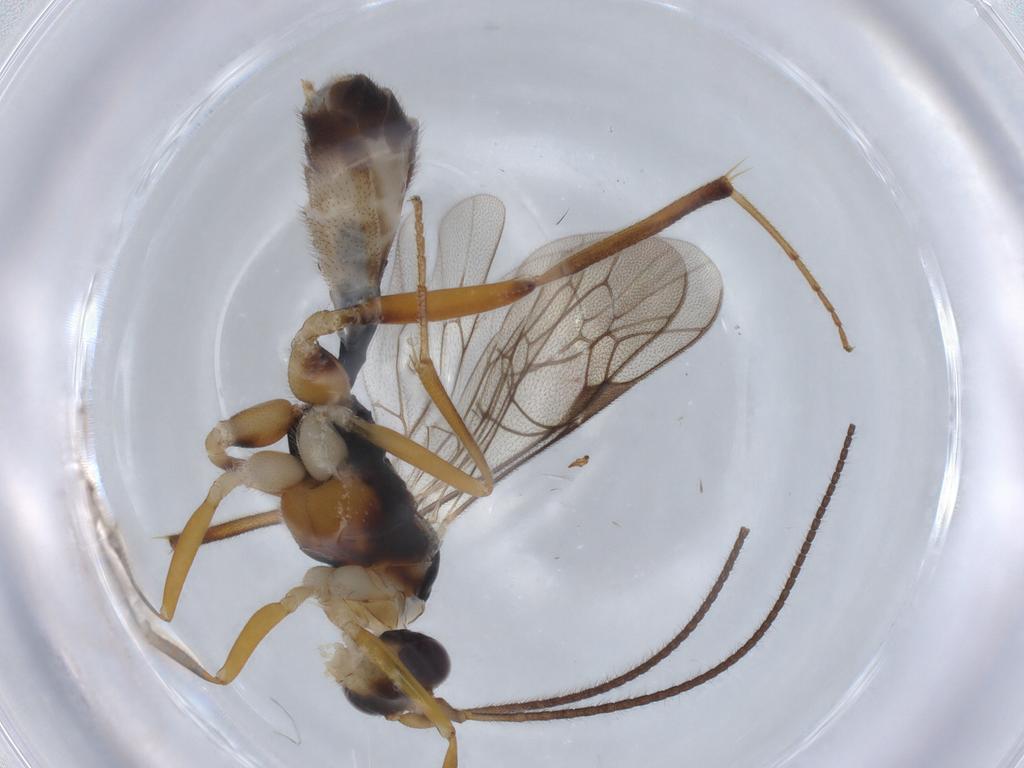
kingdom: Animalia
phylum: Arthropoda
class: Insecta
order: Hymenoptera
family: Ichneumonidae
